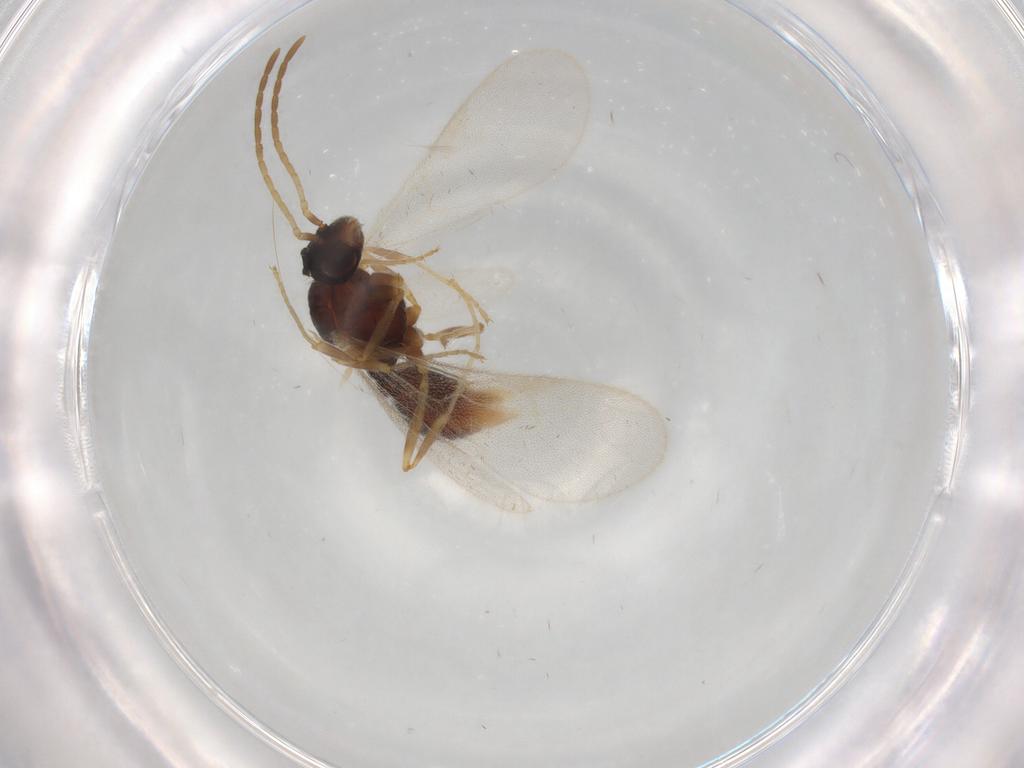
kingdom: Animalia
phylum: Arthropoda
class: Insecta
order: Hymenoptera
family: Formicidae
